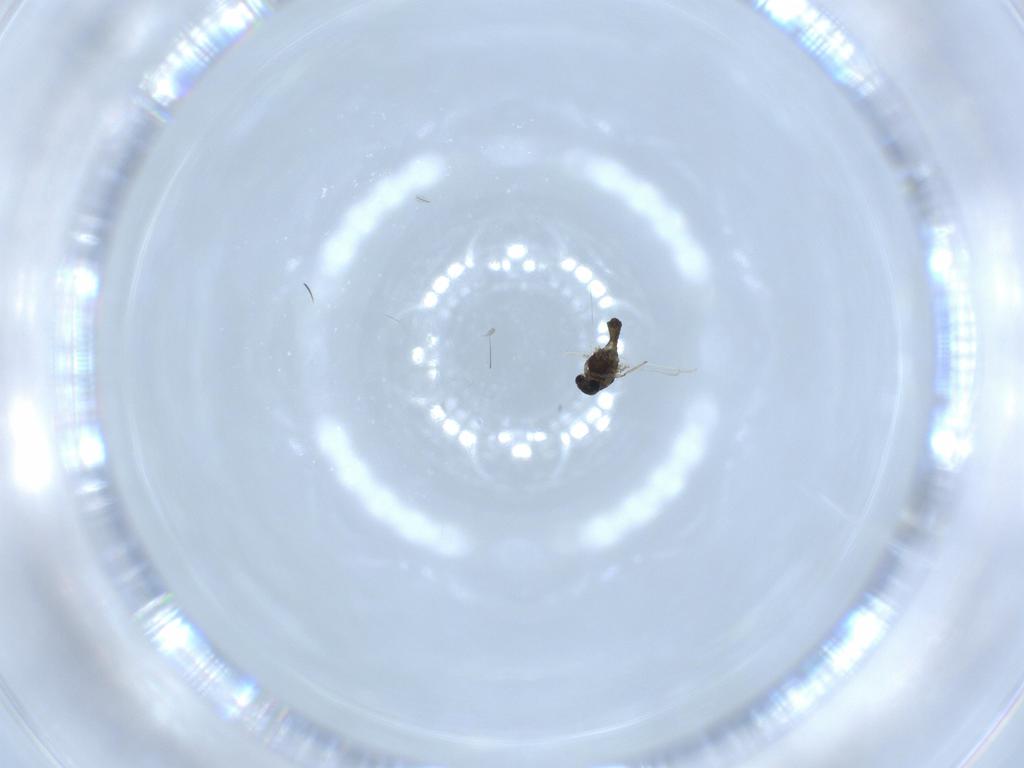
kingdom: Animalia
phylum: Arthropoda
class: Insecta
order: Diptera
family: Chironomidae
